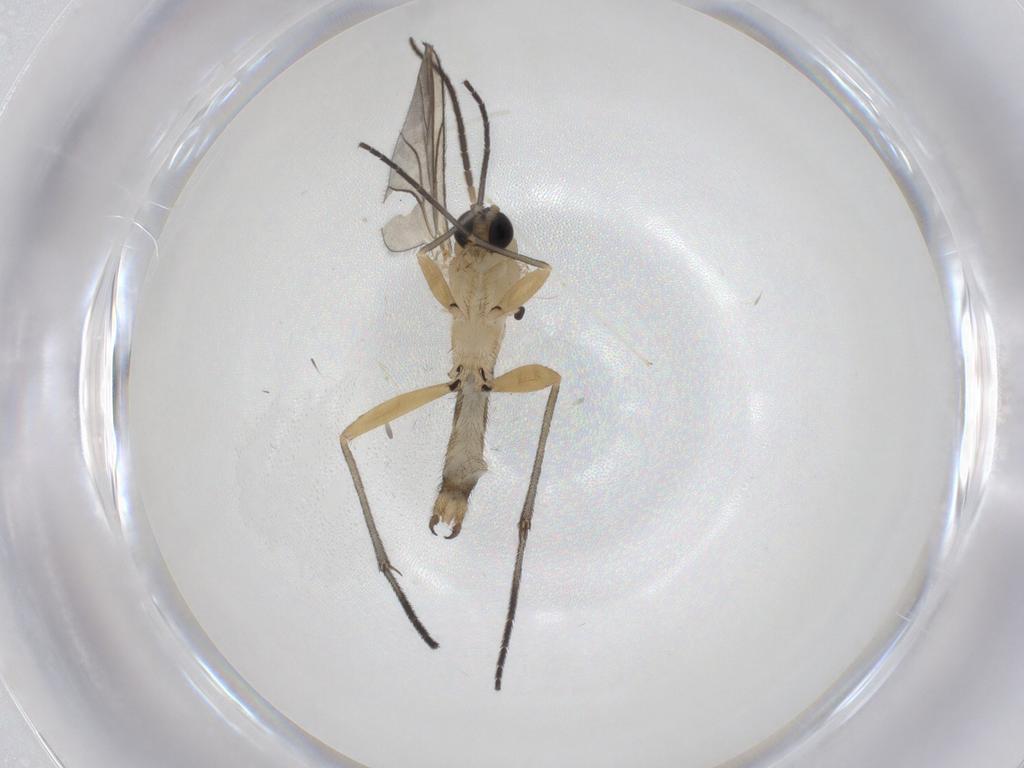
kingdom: Animalia
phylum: Arthropoda
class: Insecta
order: Diptera
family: Sciaridae
